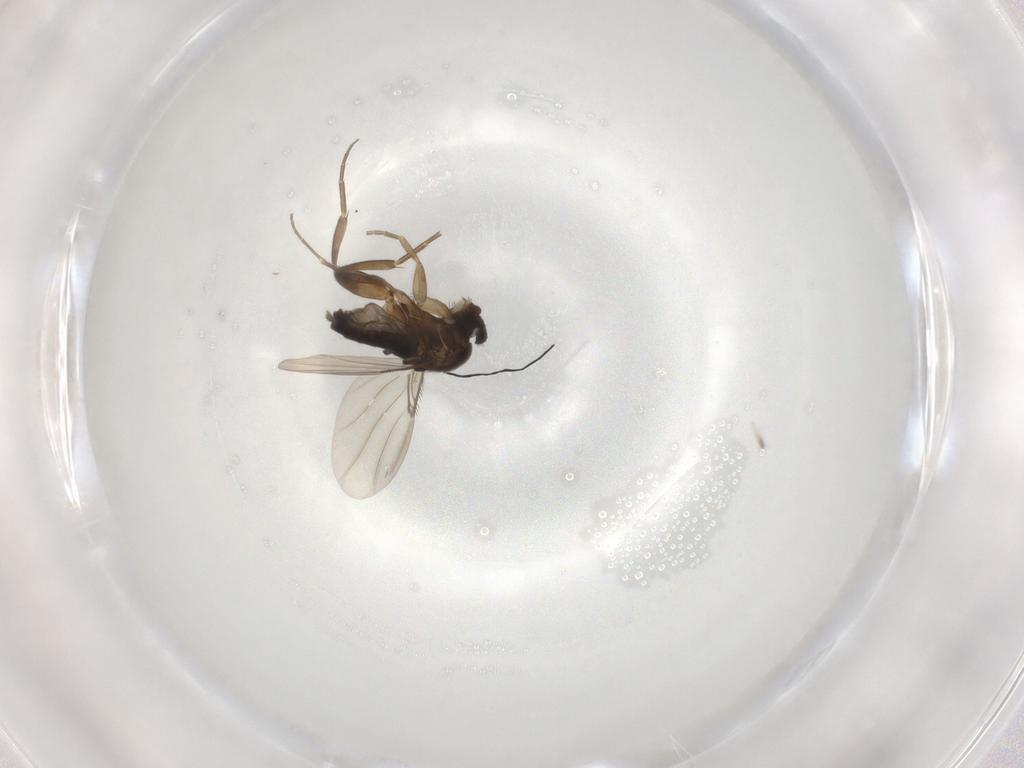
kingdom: Animalia
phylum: Arthropoda
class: Insecta
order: Diptera
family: Phoridae
